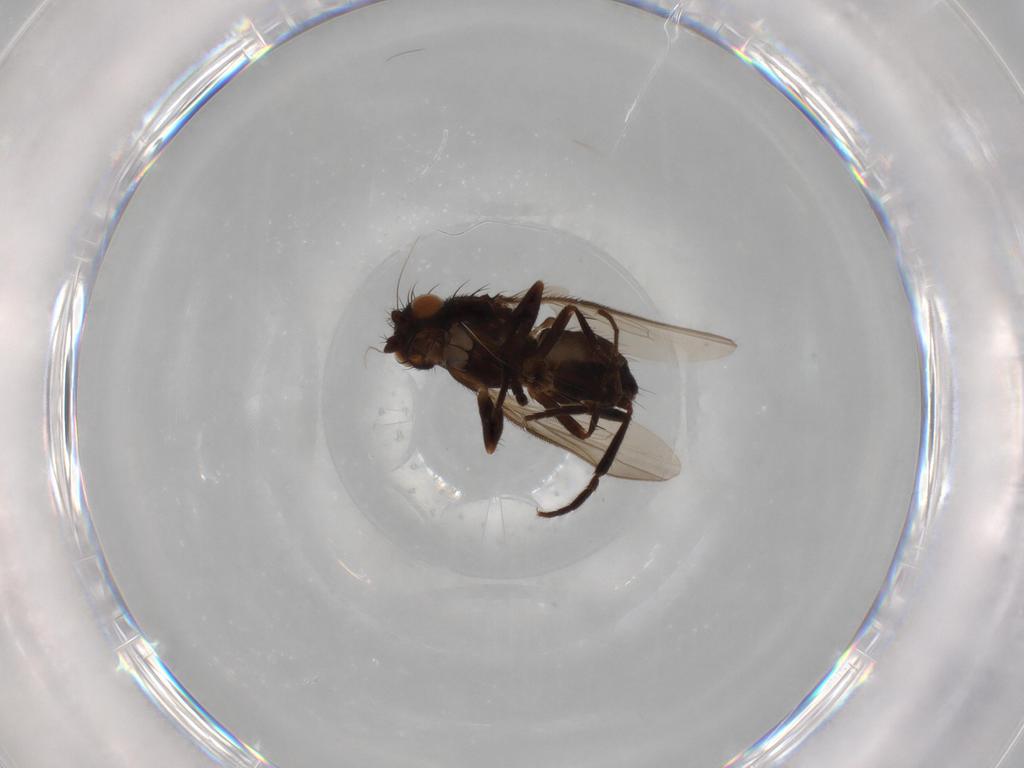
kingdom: Animalia
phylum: Arthropoda
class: Insecta
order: Diptera
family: Sphaeroceridae
